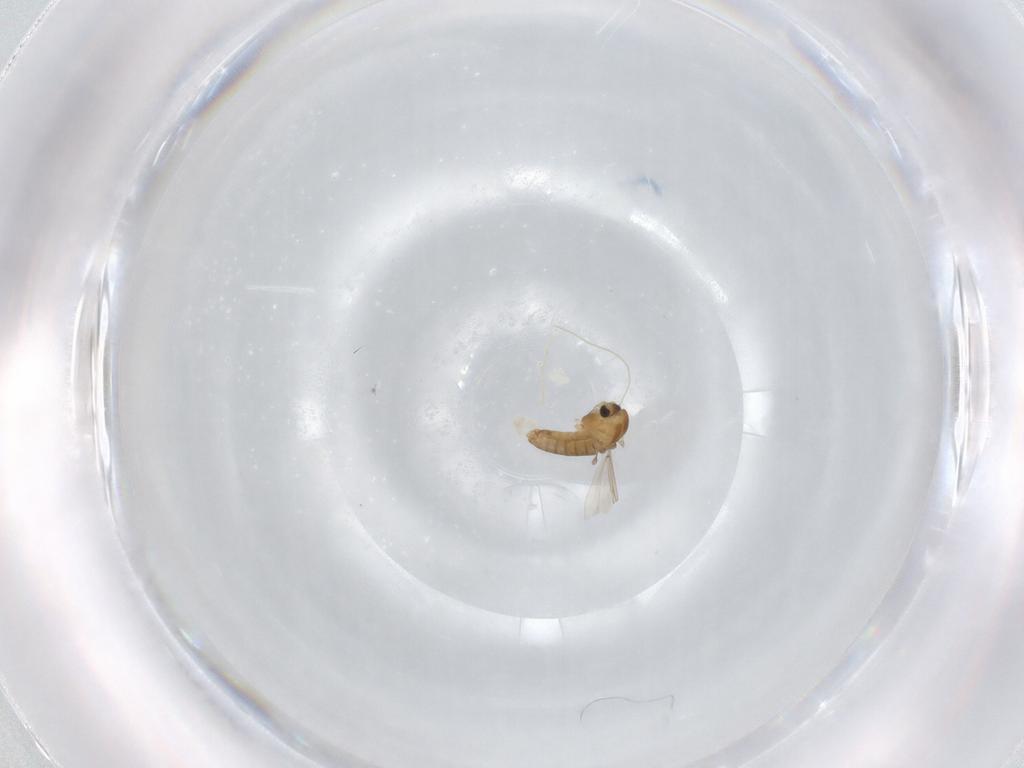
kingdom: Animalia
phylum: Arthropoda
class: Insecta
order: Diptera
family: Chironomidae
